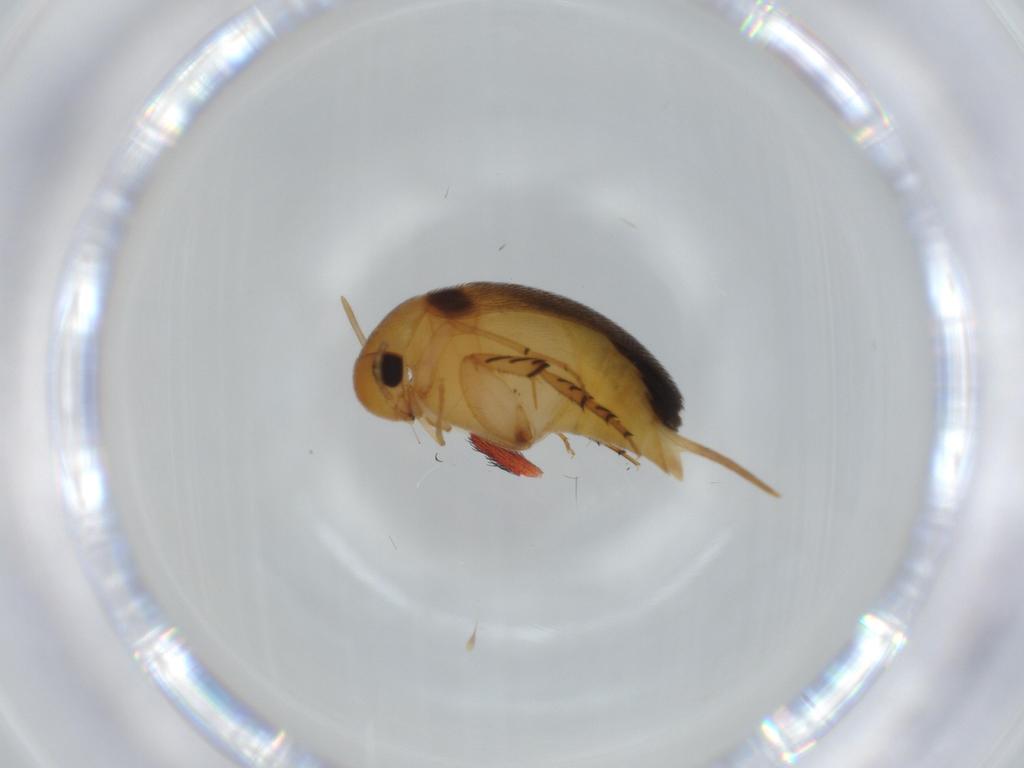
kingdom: Animalia
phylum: Arthropoda
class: Insecta
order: Coleoptera
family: Mordellidae
